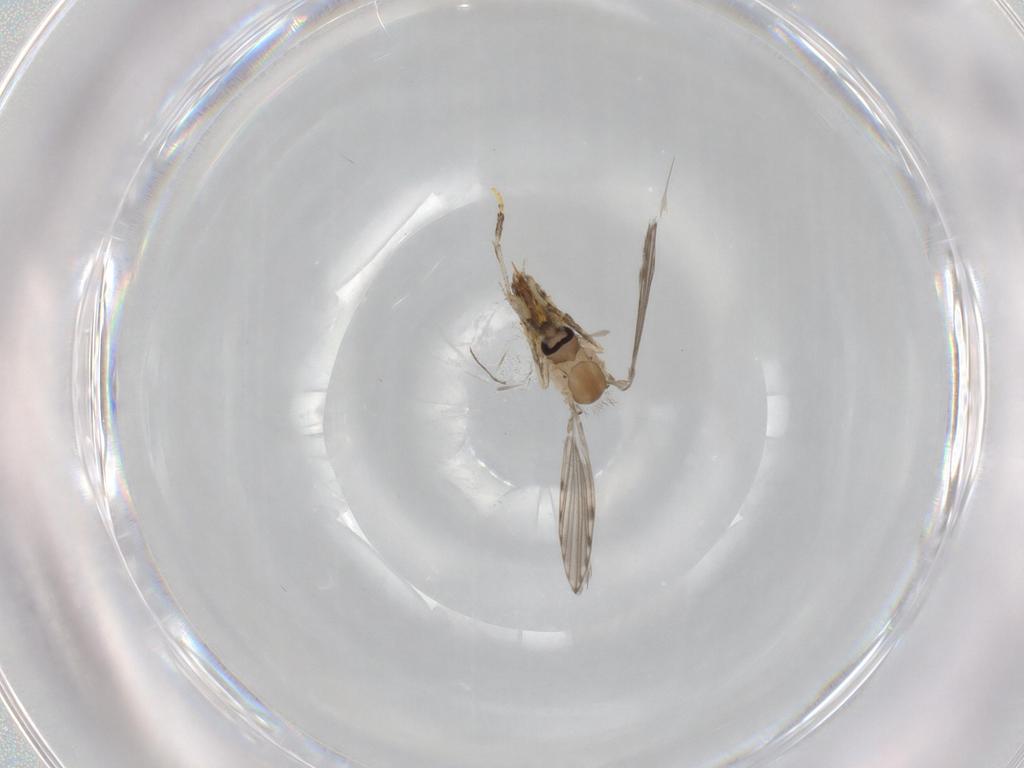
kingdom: Animalia
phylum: Arthropoda
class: Insecta
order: Diptera
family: Psychodidae
